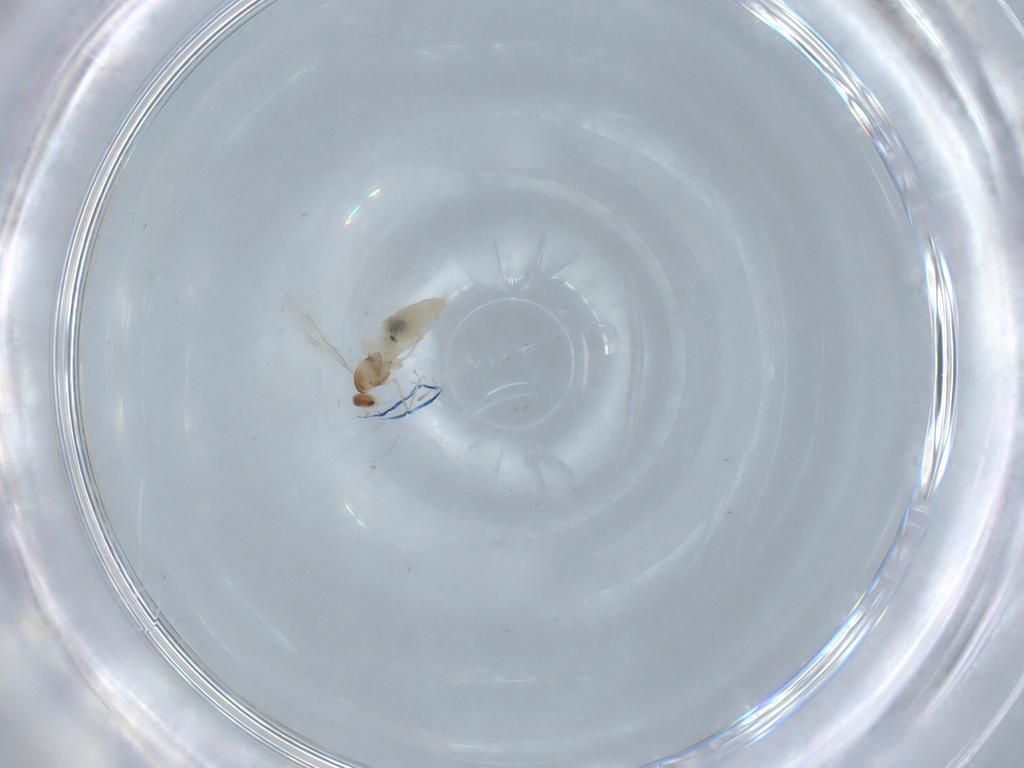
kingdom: Animalia
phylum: Arthropoda
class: Insecta
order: Diptera
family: Cecidomyiidae
